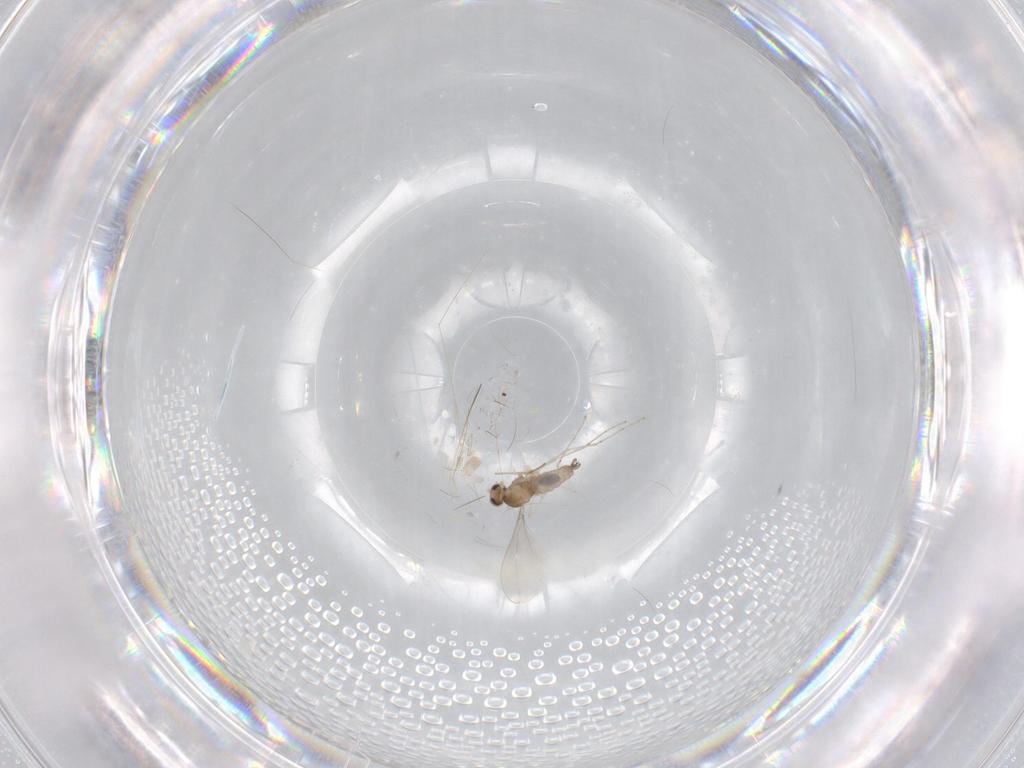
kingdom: Animalia
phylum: Arthropoda
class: Insecta
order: Diptera
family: Cecidomyiidae
